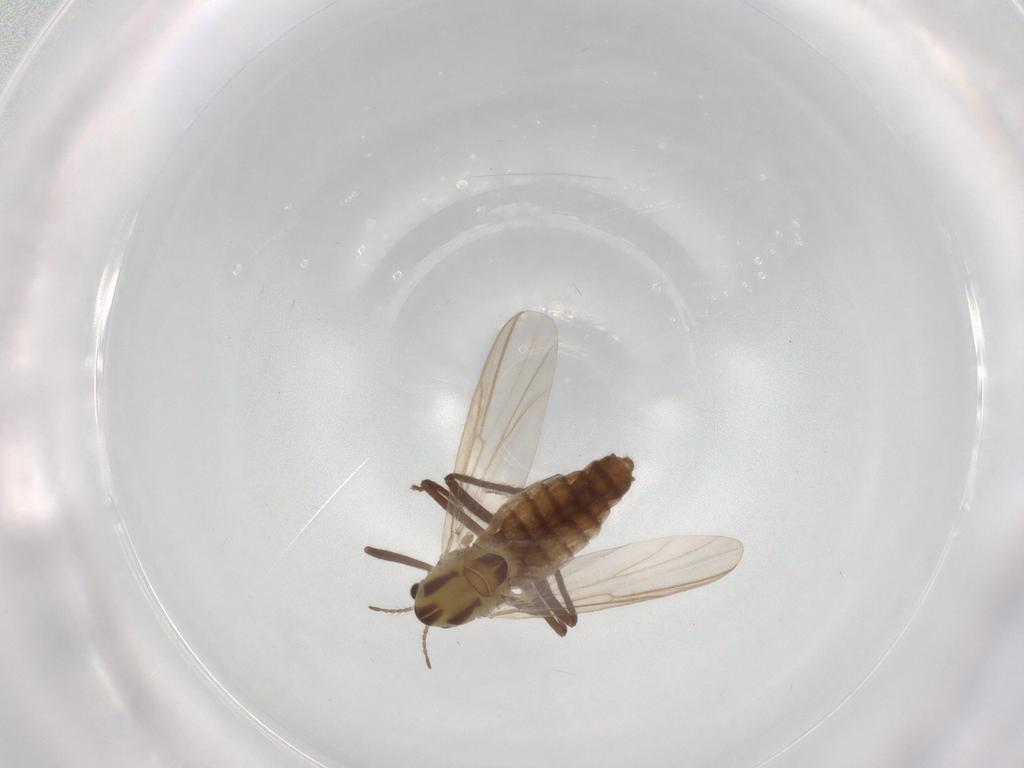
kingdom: Animalia
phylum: Arthropoda
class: Insecta
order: Diptera
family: Chironomidae
